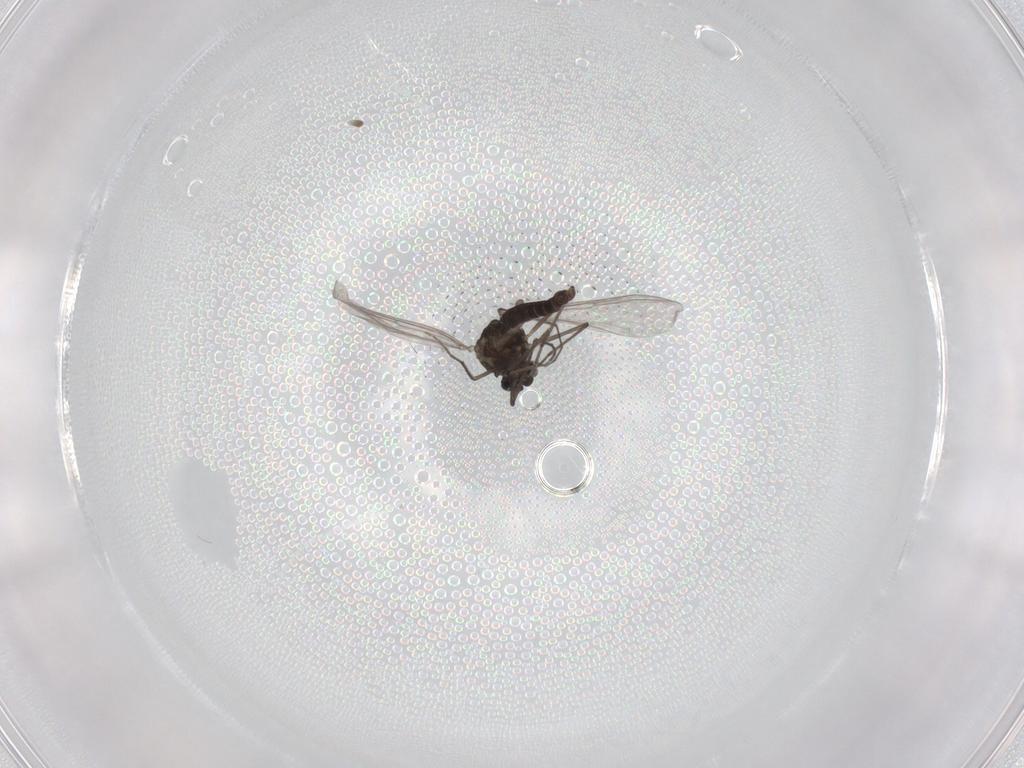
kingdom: Animalia
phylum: Arthropoda
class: Insecta
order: Diptera
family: Chironomidae
